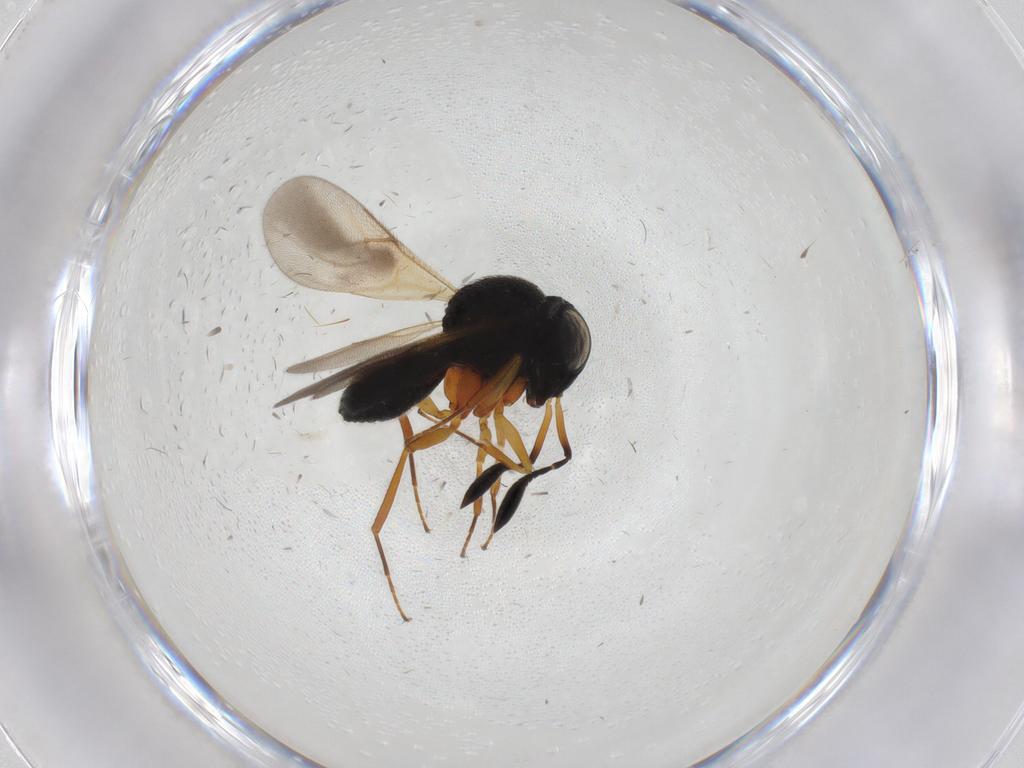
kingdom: Animalia
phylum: Arthropoda
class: Insecta
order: Hymenoptera
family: Scelionidae
